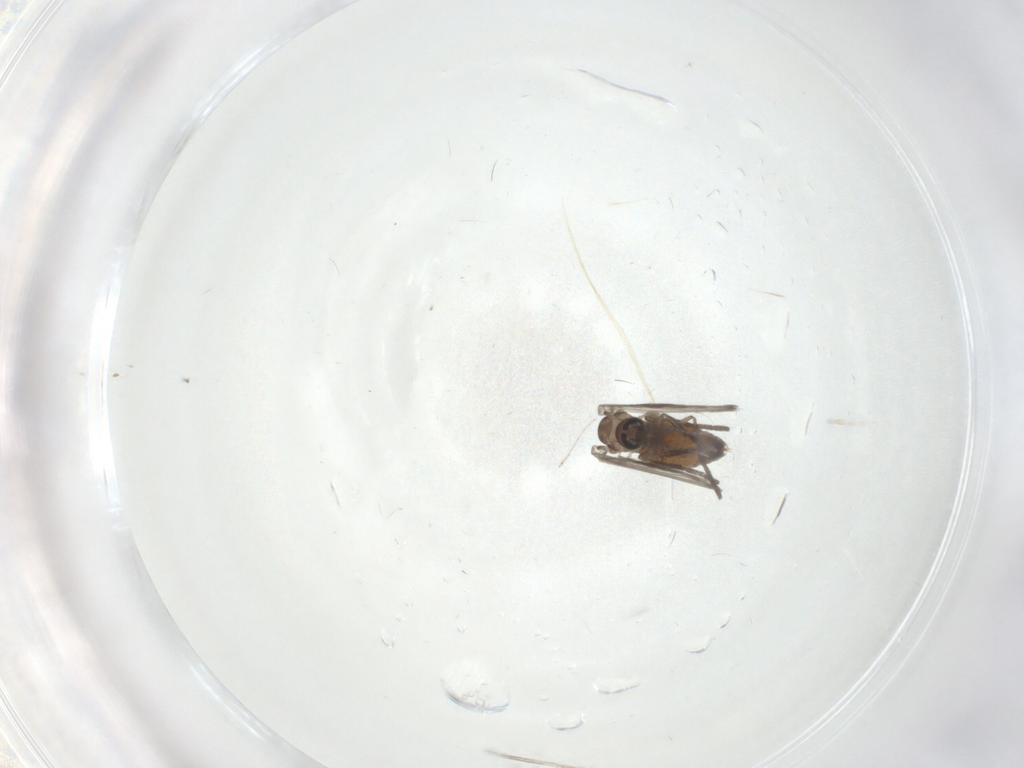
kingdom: Animalia
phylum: Arthropoda
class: Insecta
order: Diptera
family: Psychodidae
